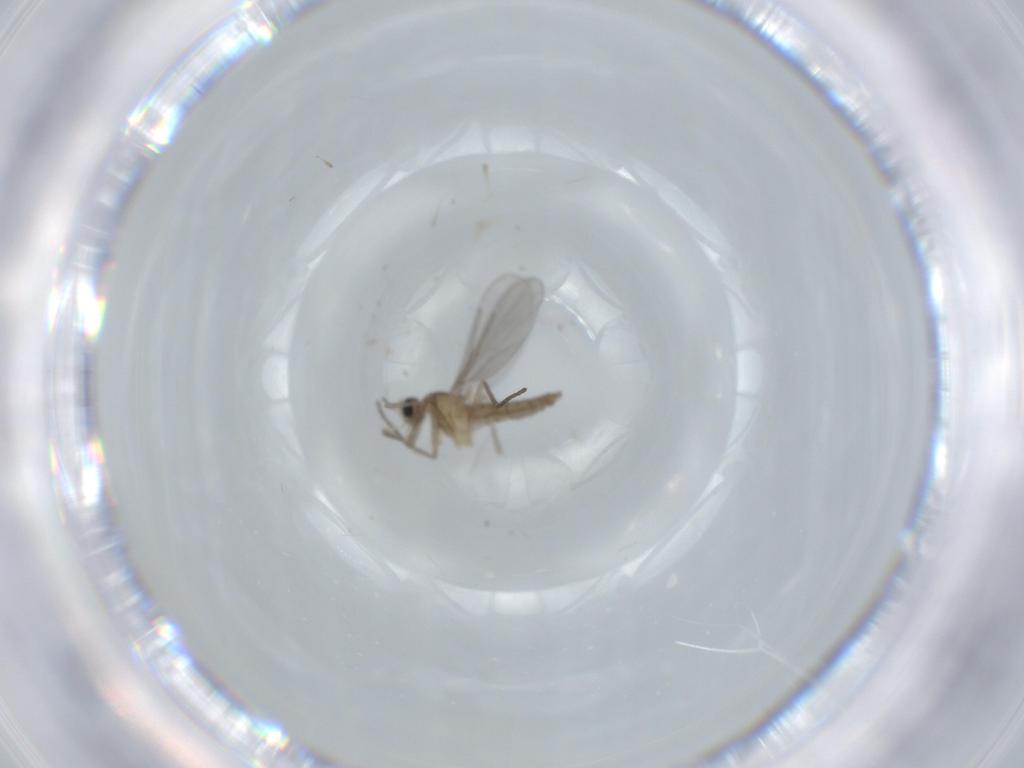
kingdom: Animalia
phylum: Arthropoda
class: Insecta
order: Diptera
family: Cecidomyiidae
